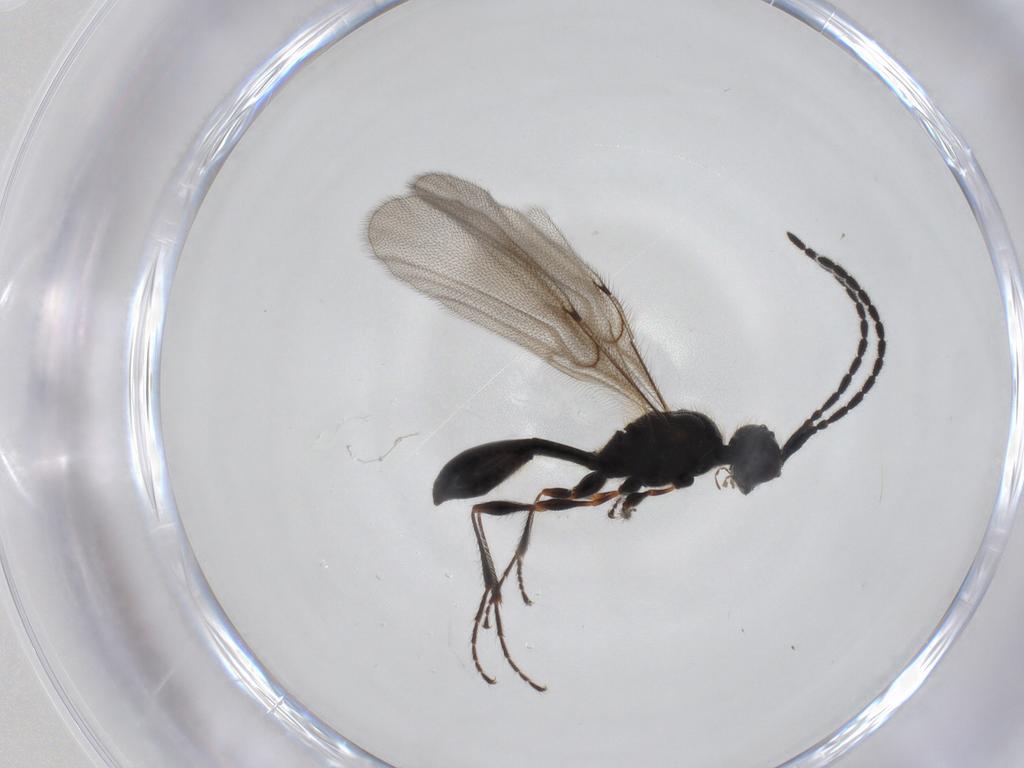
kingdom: Animalia
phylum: Arthropoda
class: Insecta
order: Hymenoptera
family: Diapriidae
